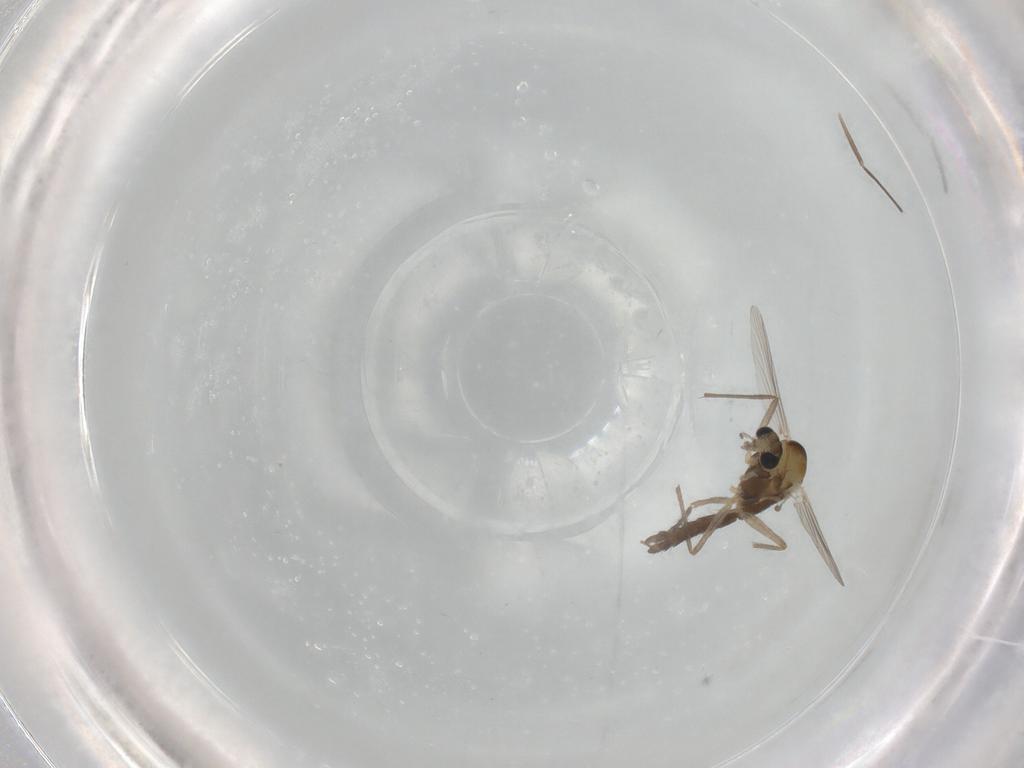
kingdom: Animalia
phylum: Arthropoda
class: Insecta
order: Diptera
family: Chironomidae
